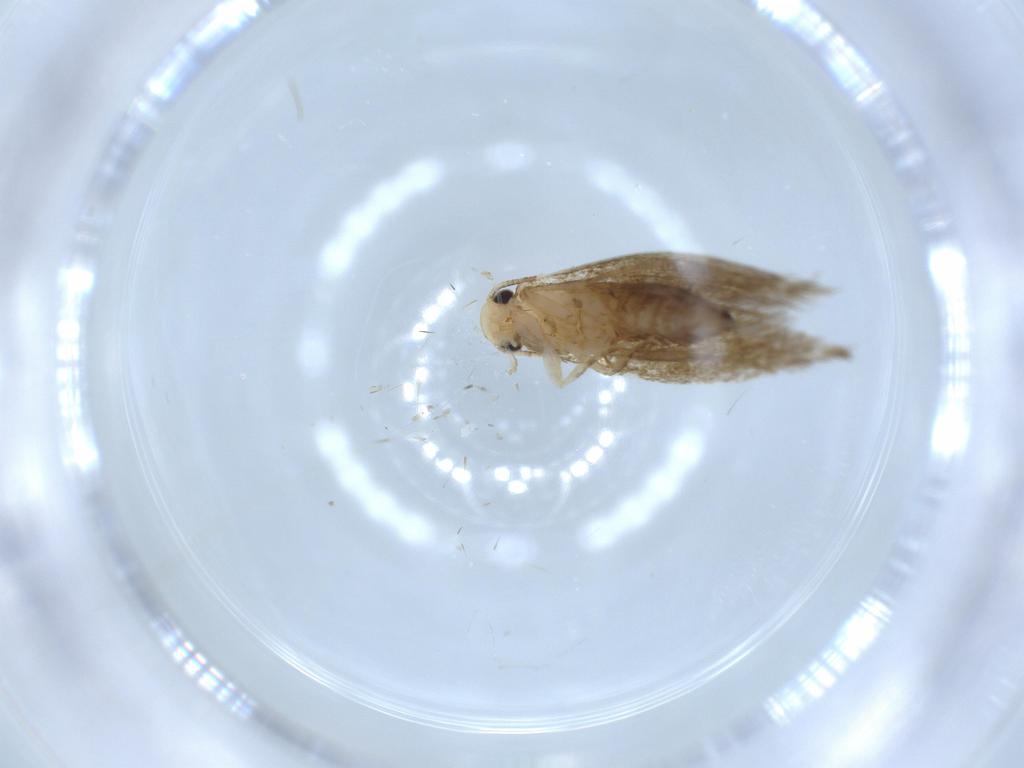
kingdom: Animalia
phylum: Arthropoda
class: Insecta
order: Lepidoptera
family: Tineidae
